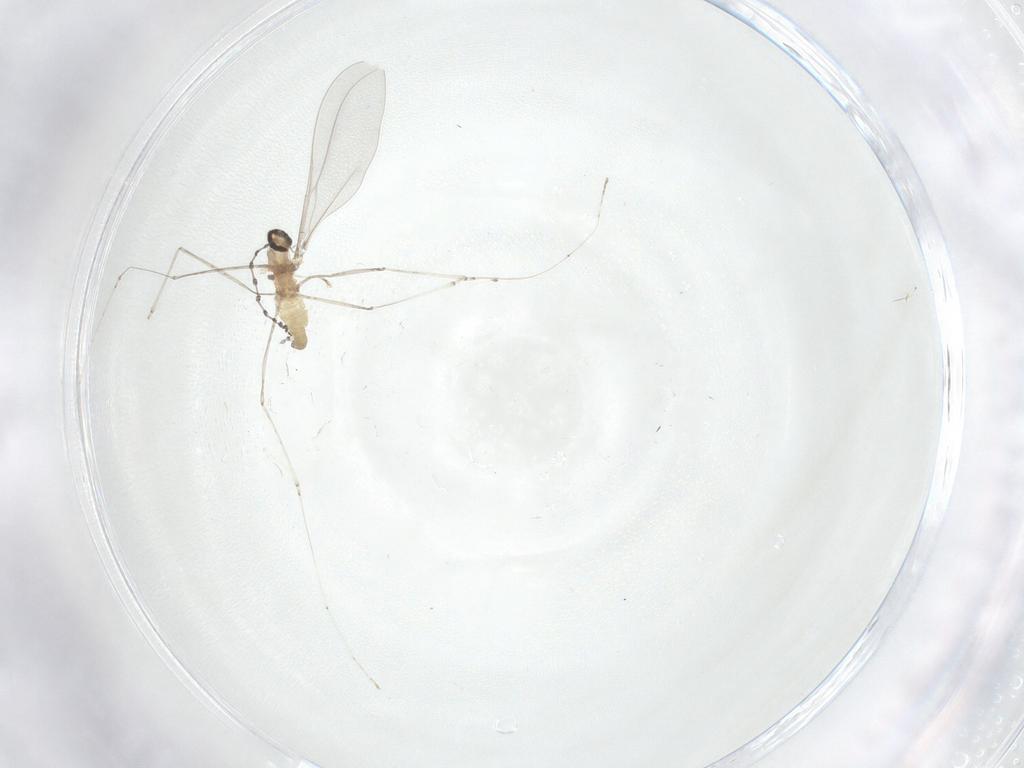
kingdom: Animalia
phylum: Arthropoda
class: Insecta
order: Diptera
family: Cecidomyiidae
